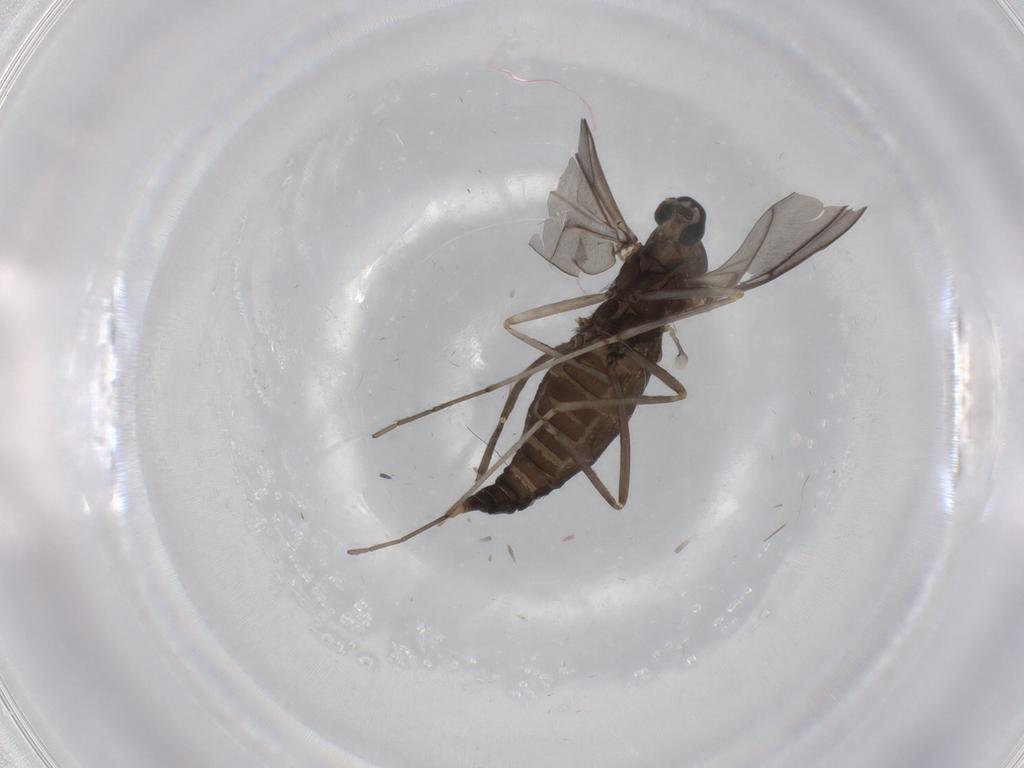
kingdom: Animalia
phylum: Arthropoda
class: Insecta
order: Diptera
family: Cecidomyiidae
